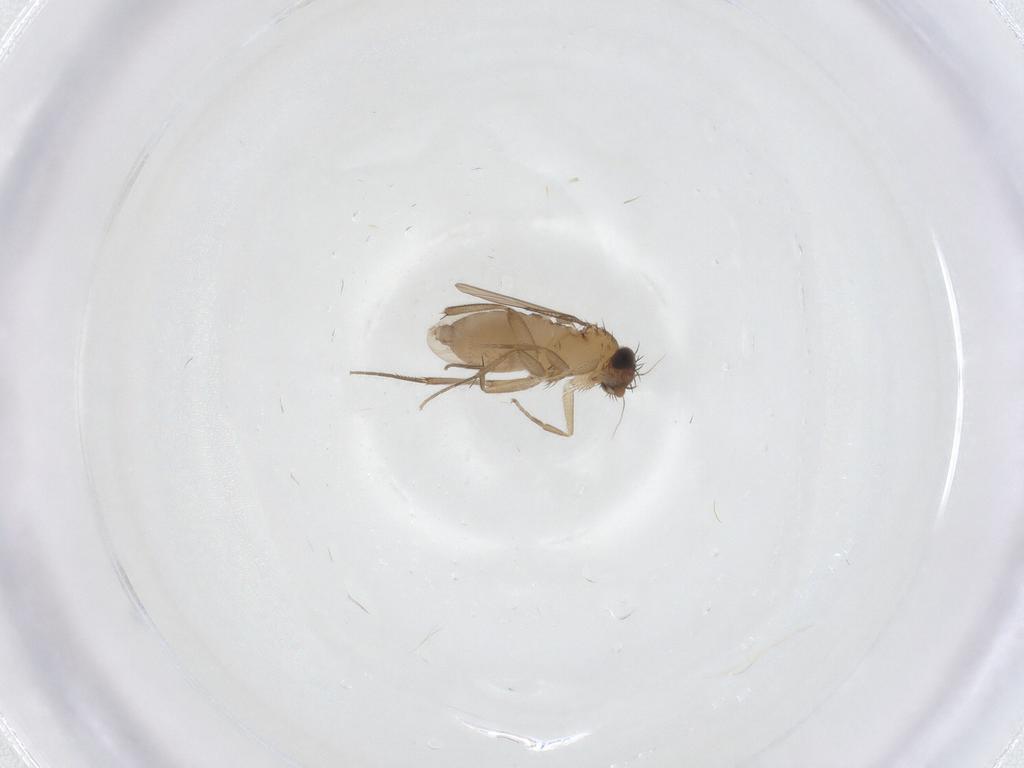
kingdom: Animalia
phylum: Arthropoda
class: Insecta
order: Diptera
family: Phoridae
